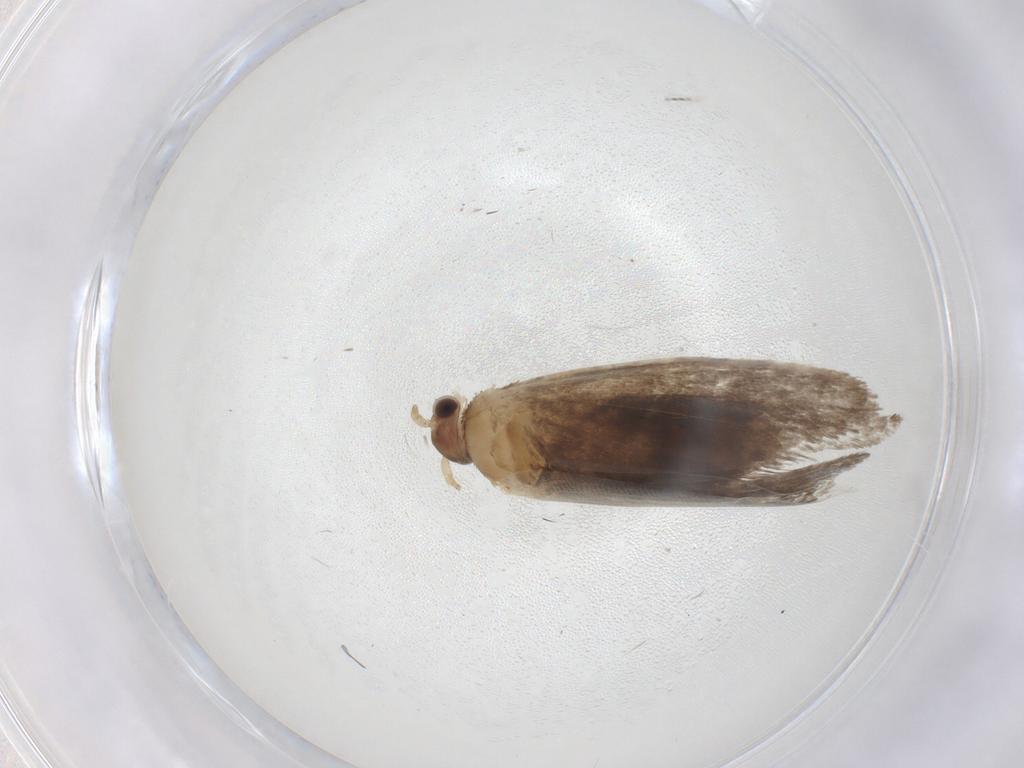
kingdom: Animalia
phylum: Arthropoda
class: Insecta
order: Lepidoptera
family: Dryadaulidae
